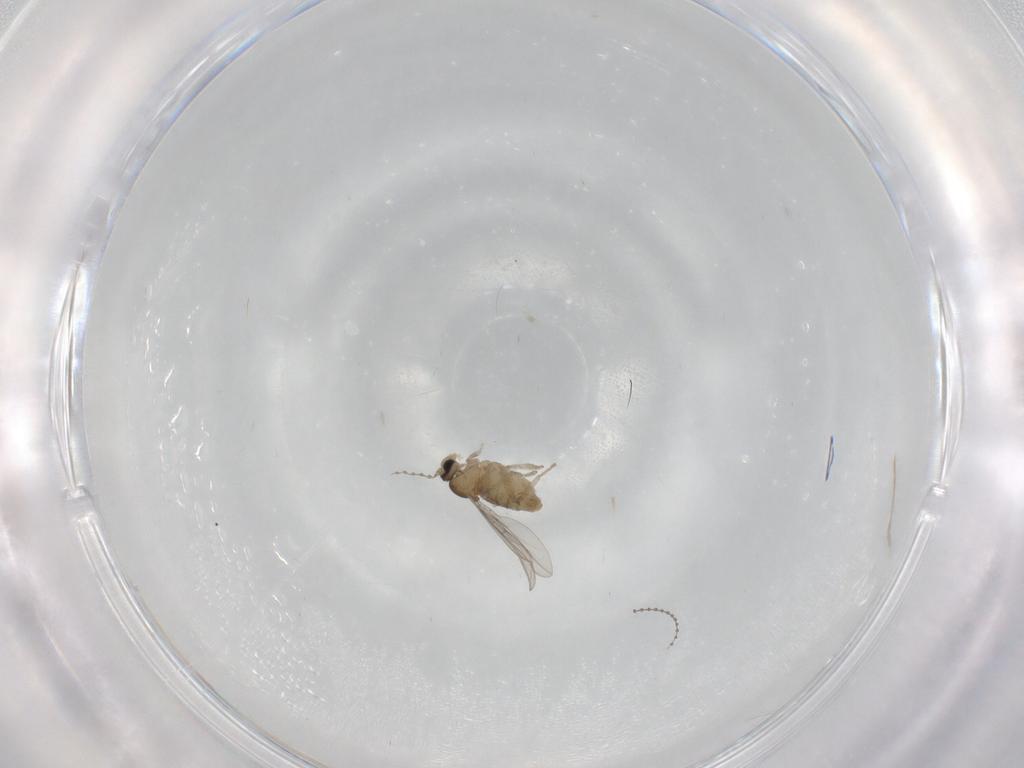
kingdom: Animalia
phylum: Arthropoda
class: Insecta
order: Diptera
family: Cecidomyiidae
